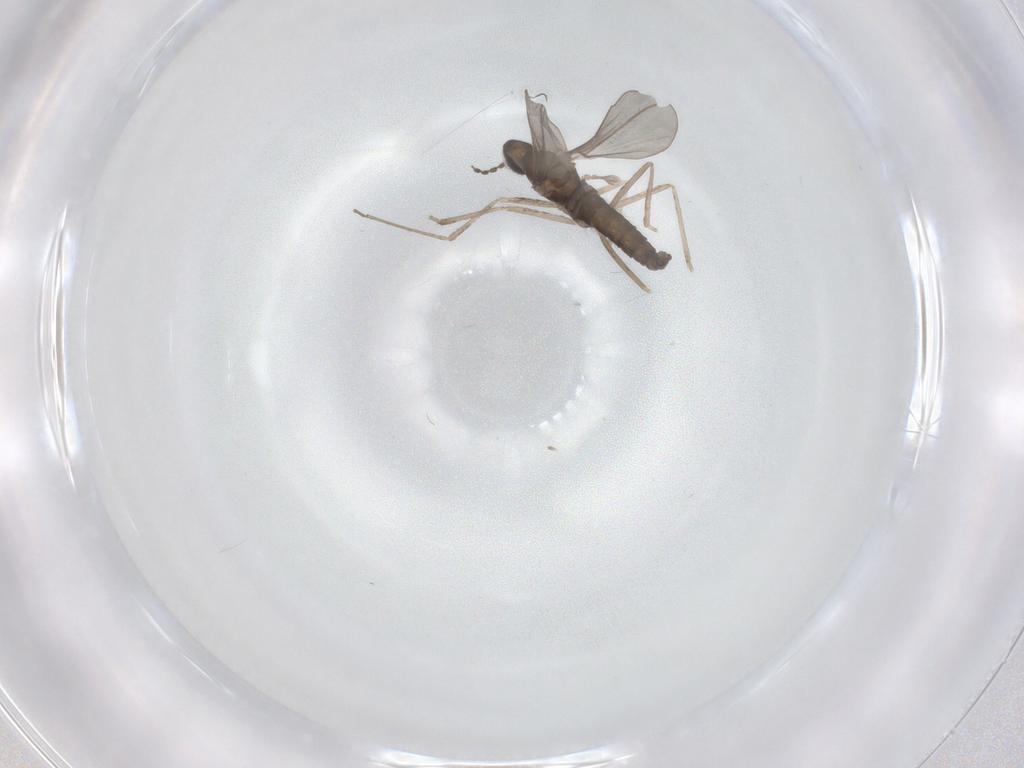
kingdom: Animalia
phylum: Arthropoda
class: Insecta
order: Diptera
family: Cecidomyiidae
